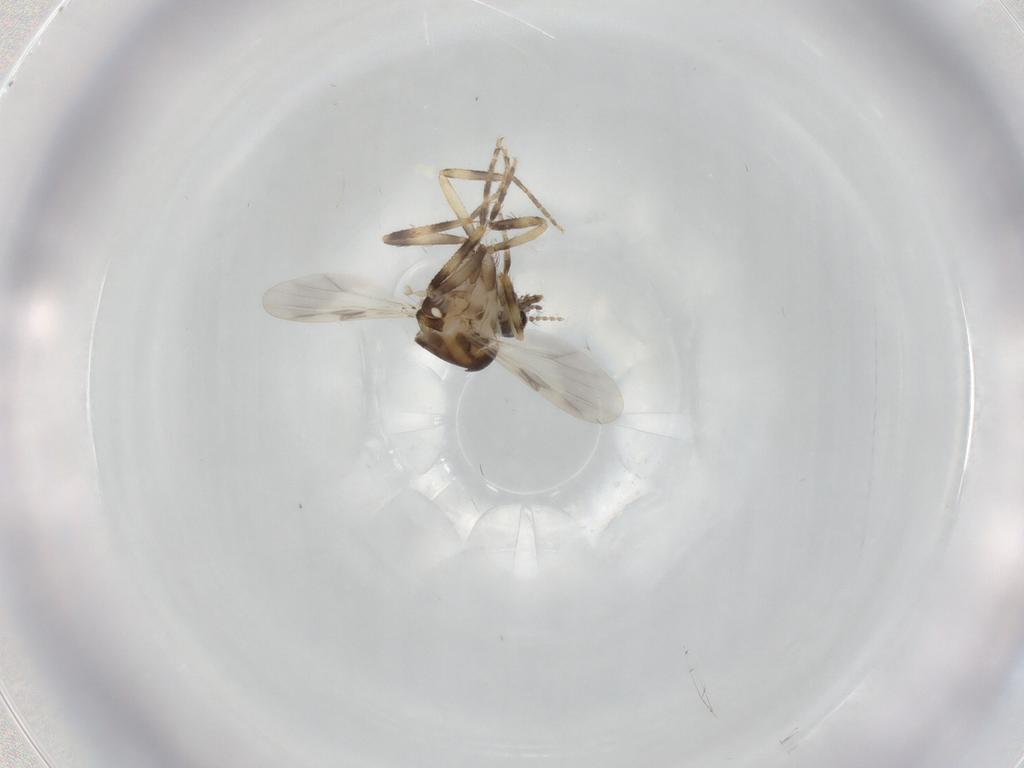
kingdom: Animalia
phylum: Arthropoda
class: Insecta
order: Diptera
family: Ceratopogonidae
